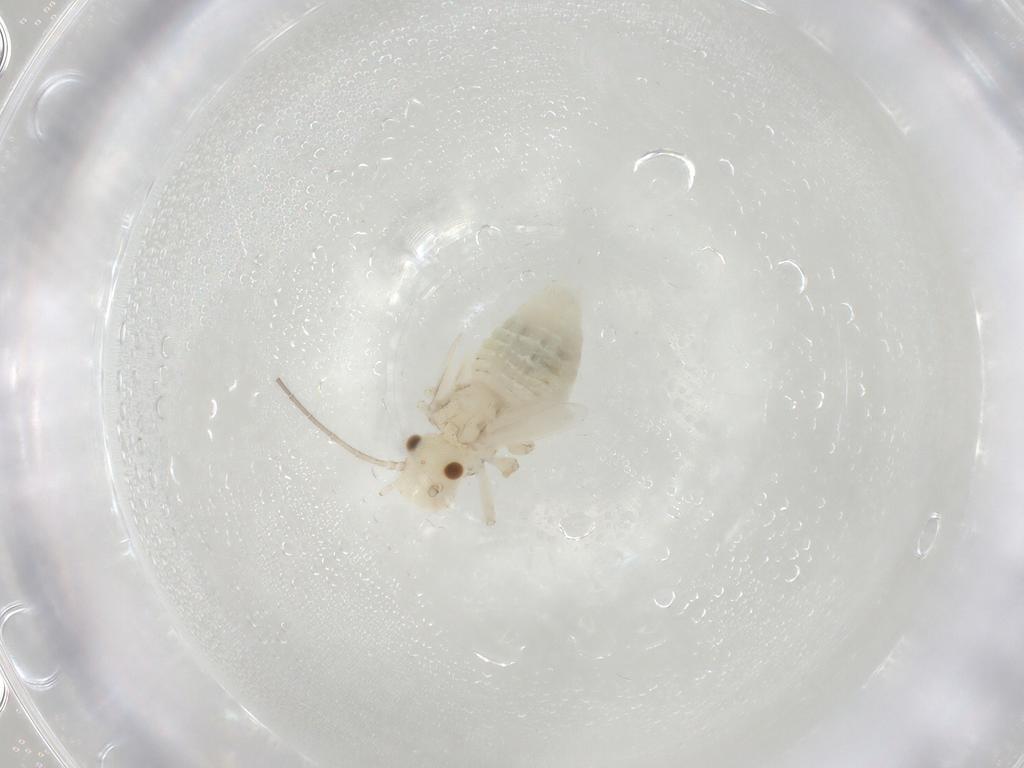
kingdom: Animalia
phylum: Arthropoda
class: Insecta
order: Psocodea
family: Caeciliusidae
